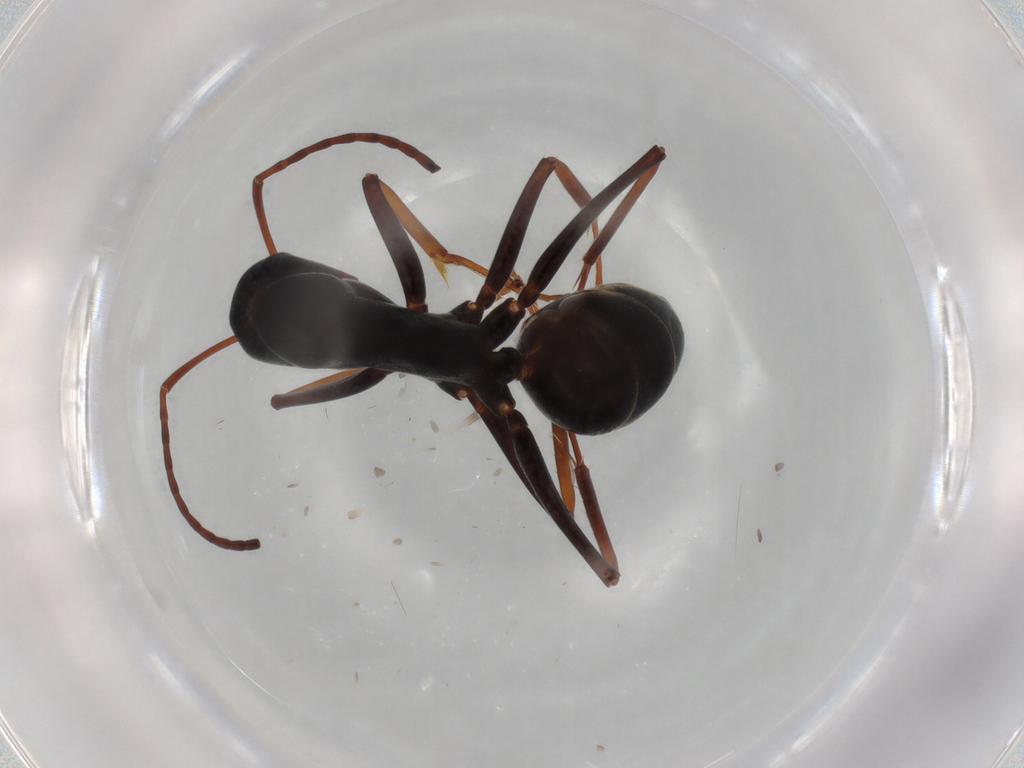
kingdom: Animalia
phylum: Arthropoda
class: Insecta
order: Hymenoptera
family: Formicidae
